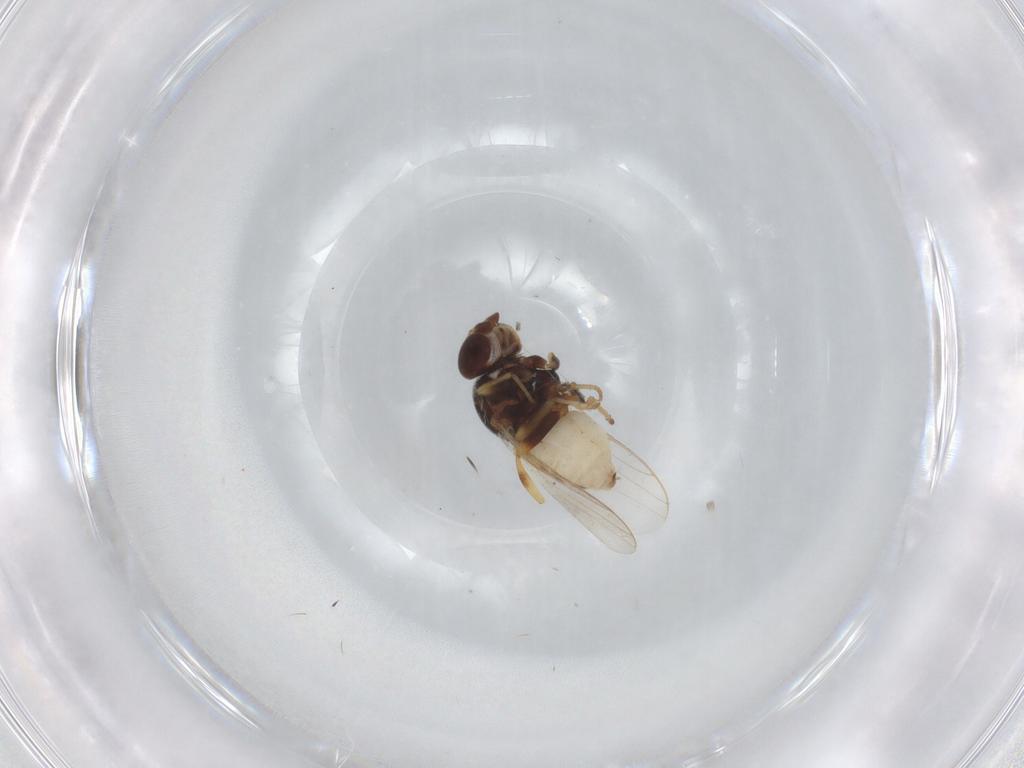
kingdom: Animalia
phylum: Arthropoda
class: Insecta
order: Diptera
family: Chloropidae
